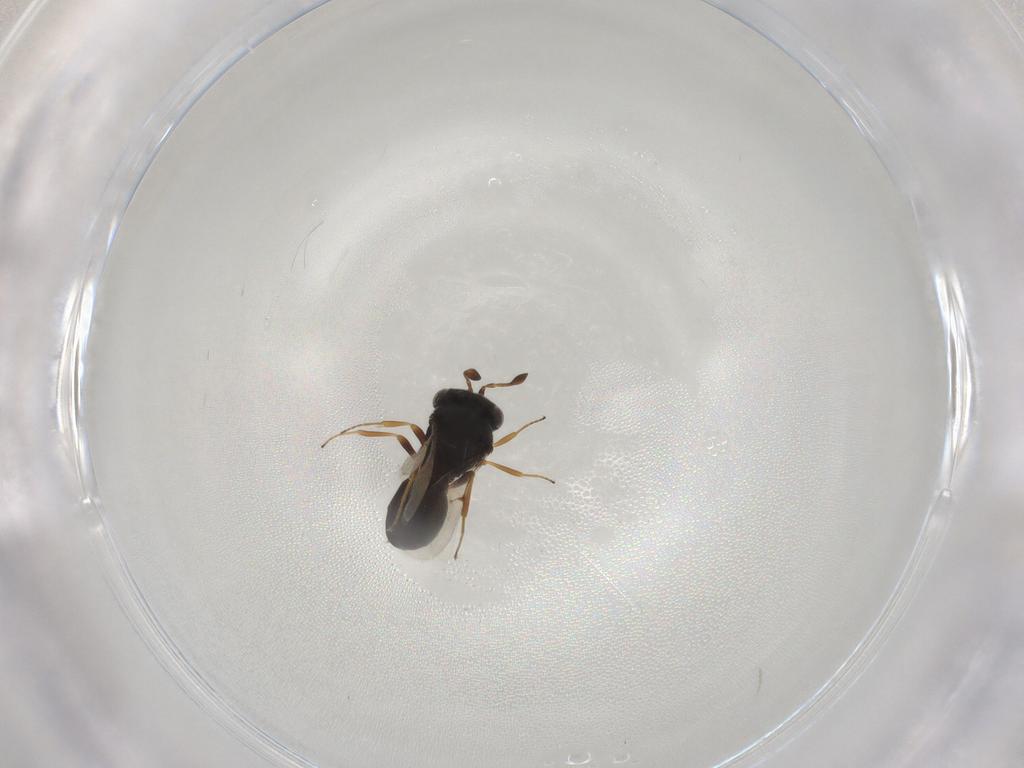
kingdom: Animalia
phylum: Arthropoda
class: Insecta
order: Hymenoptera
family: Scelionidae
